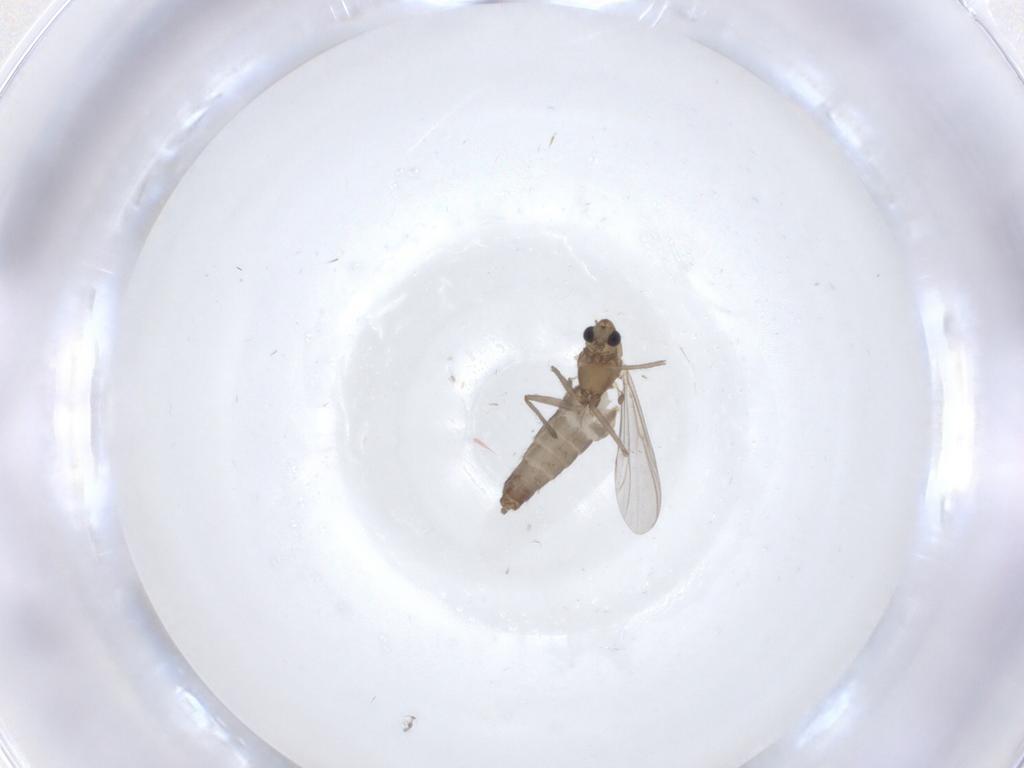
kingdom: Animalia
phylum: Arthropoda
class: Insecta
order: Diptera
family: Chironomidae
